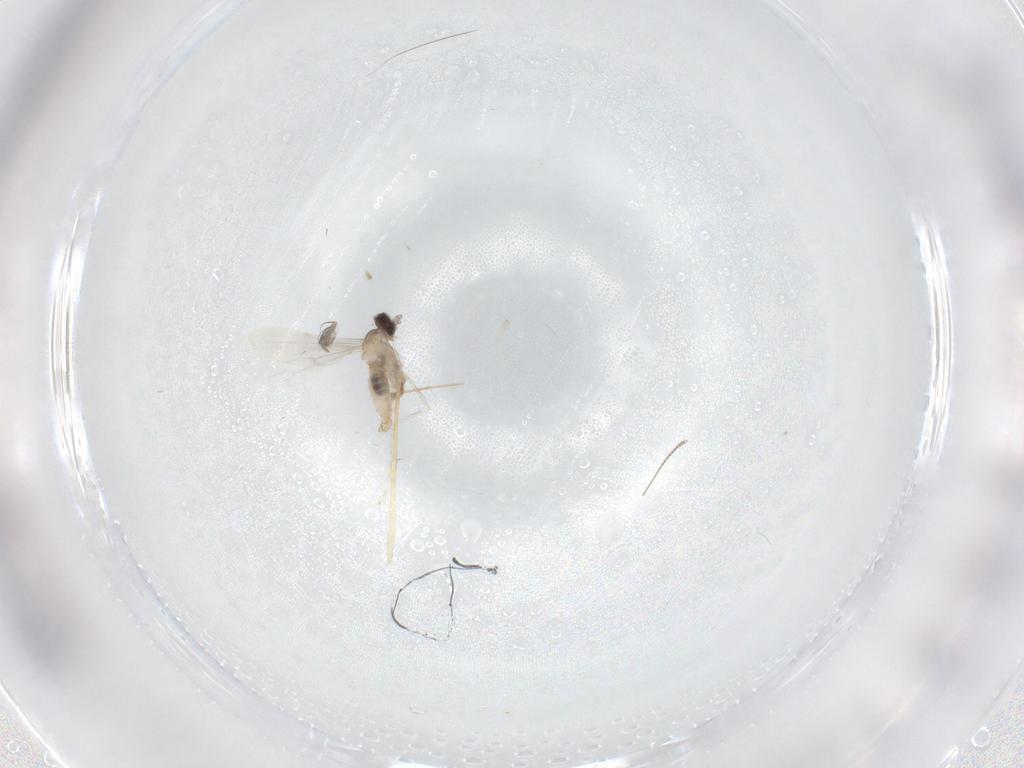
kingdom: Animalia
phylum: Arthropoda
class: Insecta
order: Diptera
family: Cecidomyiidae
